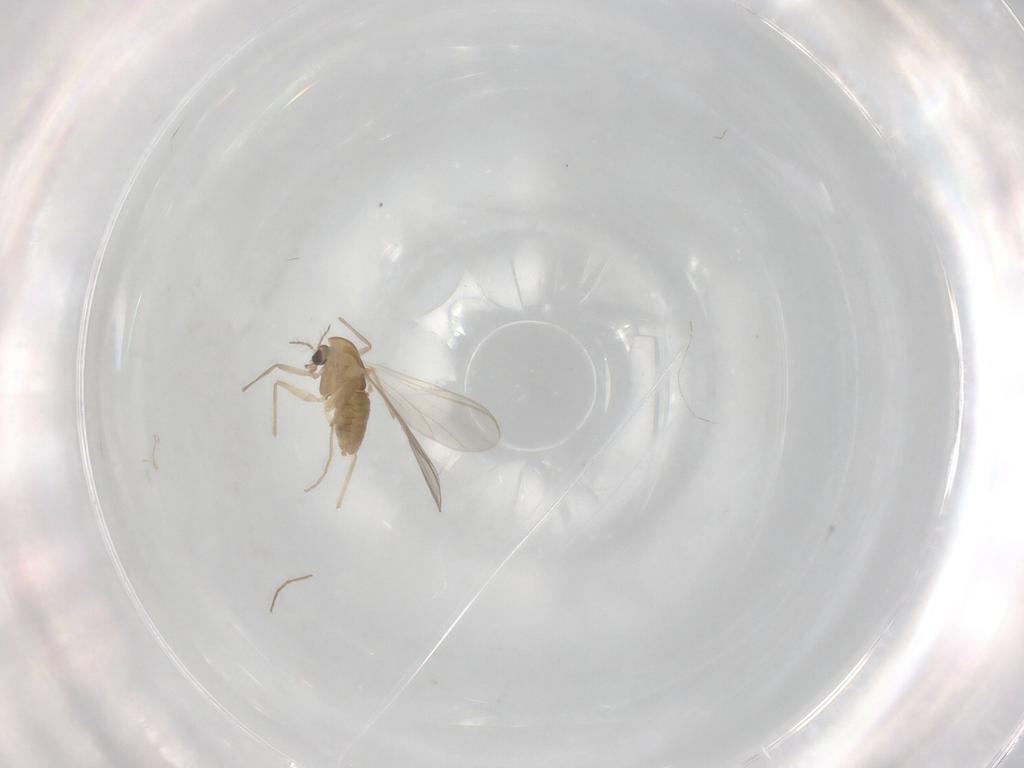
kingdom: Animalia
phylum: Arthropoda
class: Insecta
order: Diptera
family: Chironomidae
